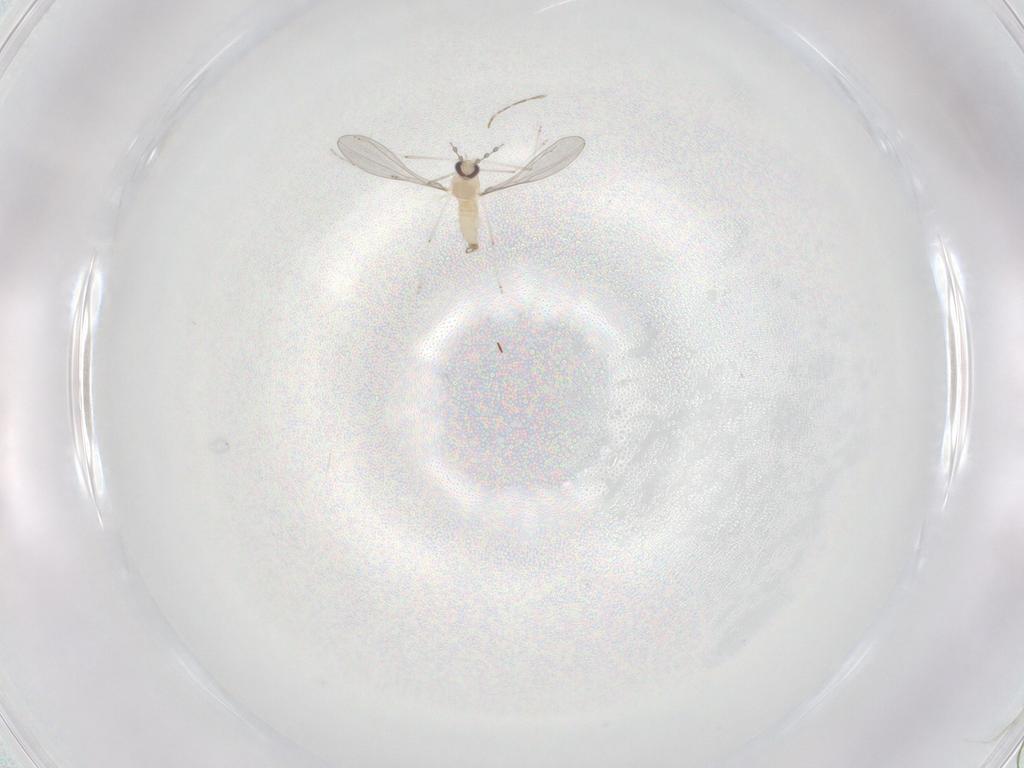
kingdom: Animalia
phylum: Arthropoda
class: Insecta
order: Diptera
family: Cecidomyiidae
